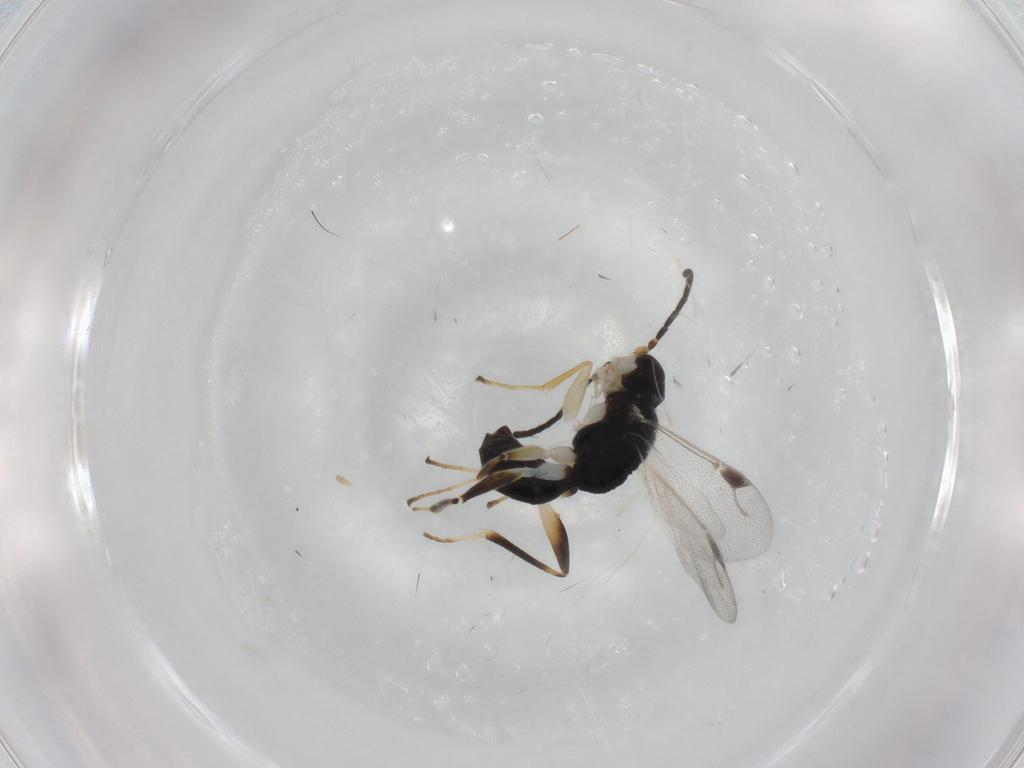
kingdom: Animalia
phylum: Arthropoda
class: Insecta
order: Hymenoptera
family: Dryinidae
